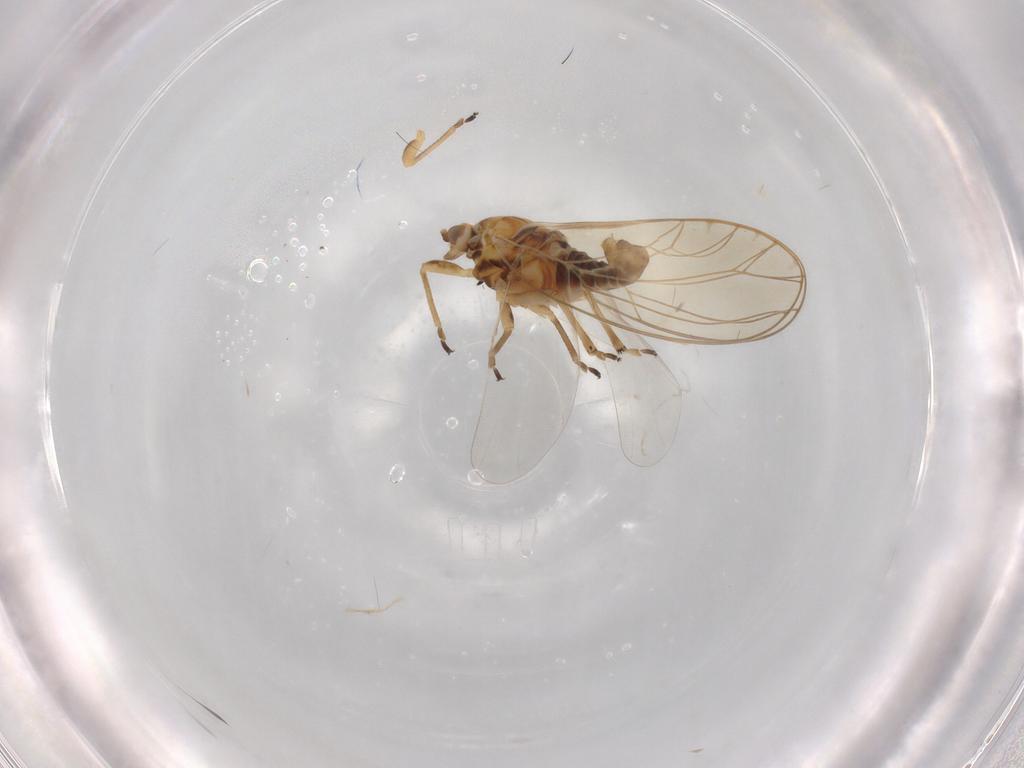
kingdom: Animalia
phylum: Arthropoda
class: Insecta
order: Hemiptera
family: Triozidae
